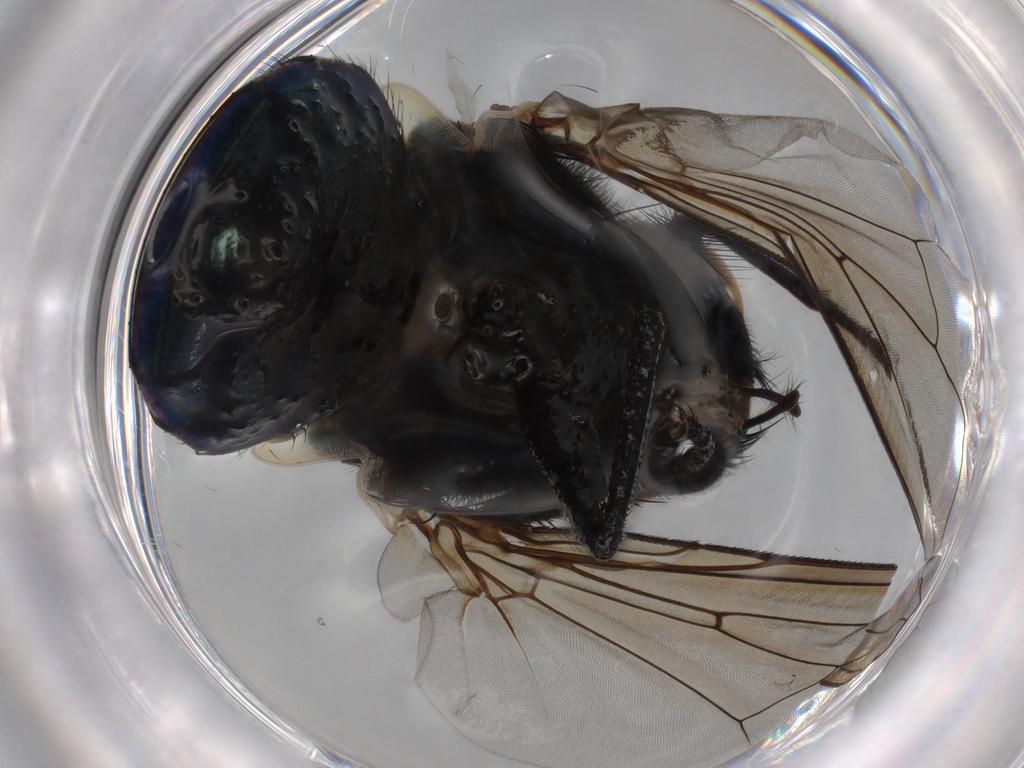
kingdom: Animalia
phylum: Arthropoda
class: Insecta
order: Diptera
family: Muscidae
